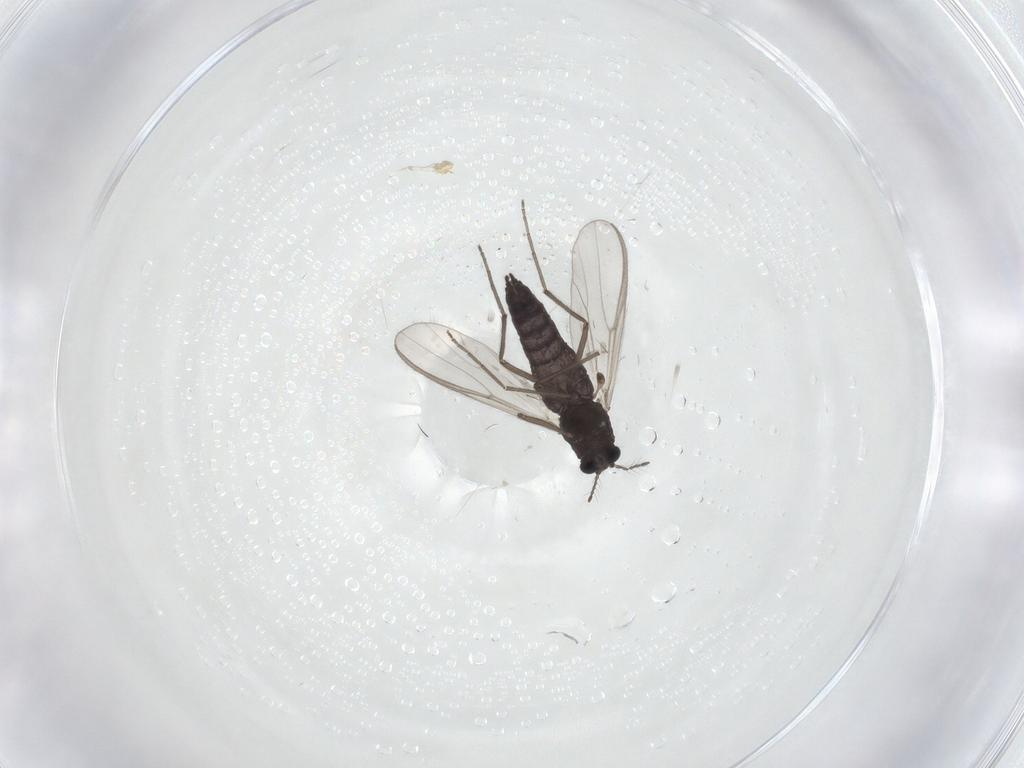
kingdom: Animalia
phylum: Arthropoda
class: Insecta
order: Diptera
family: Chironomidae
